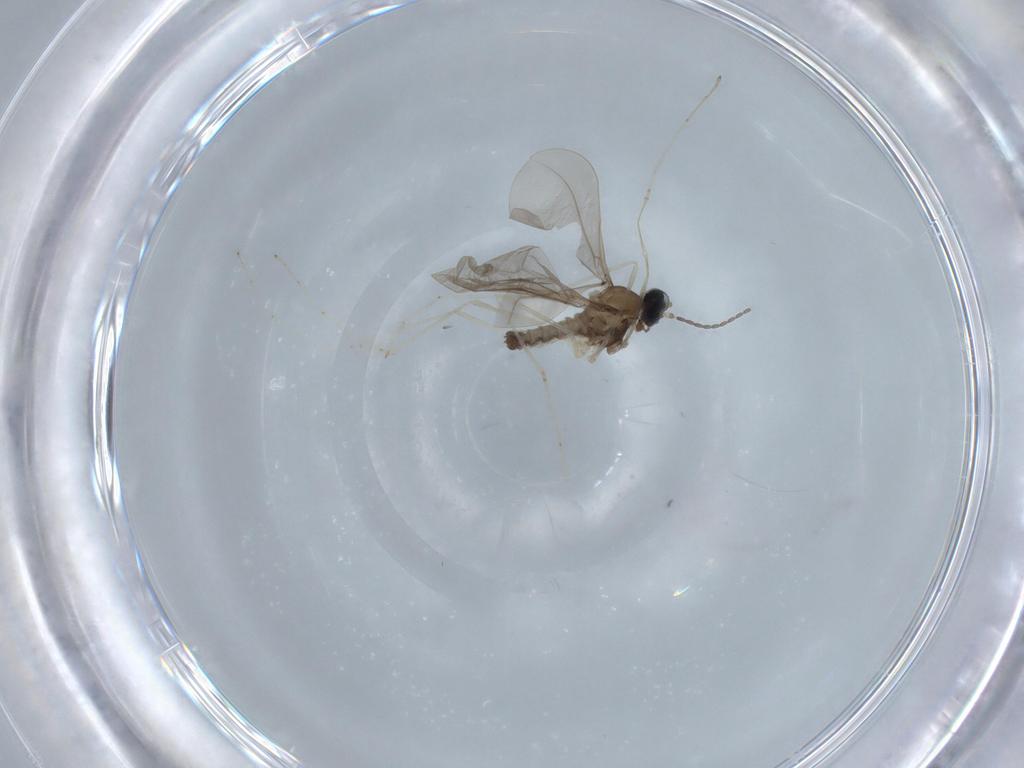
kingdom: Animalia
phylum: Arthropoda
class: Insecta
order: Diptera
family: Cecidomyiidae
